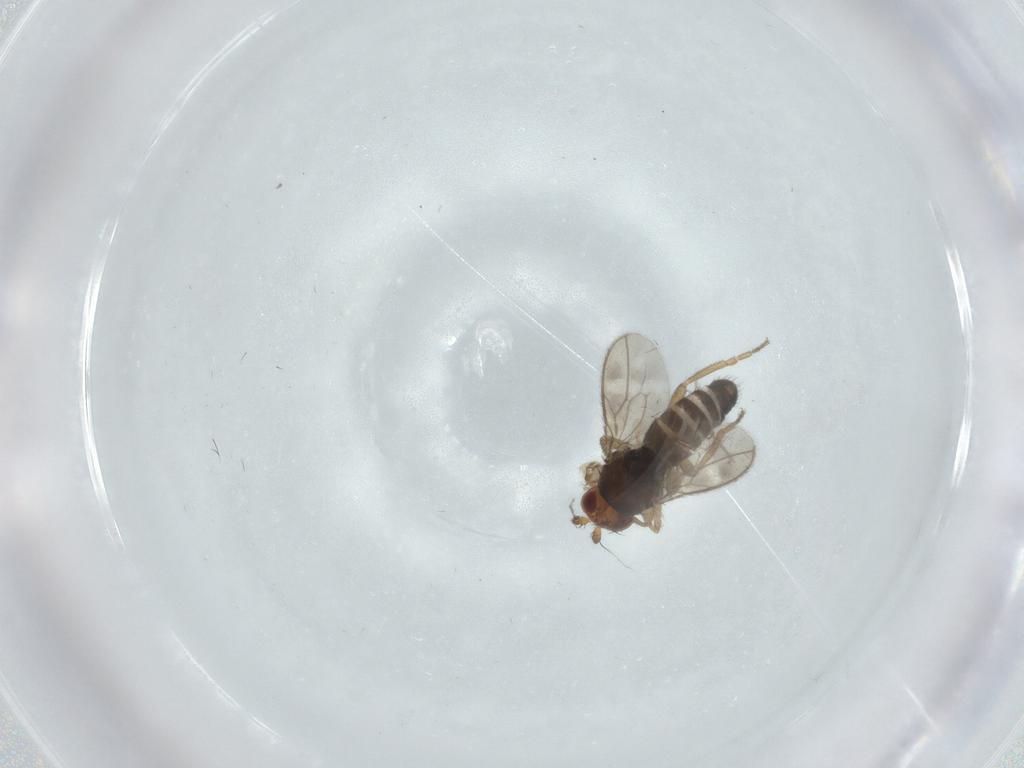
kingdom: Animalia
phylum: Arthropoda
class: Insecta
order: Diptera
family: Sphaeroceridae
